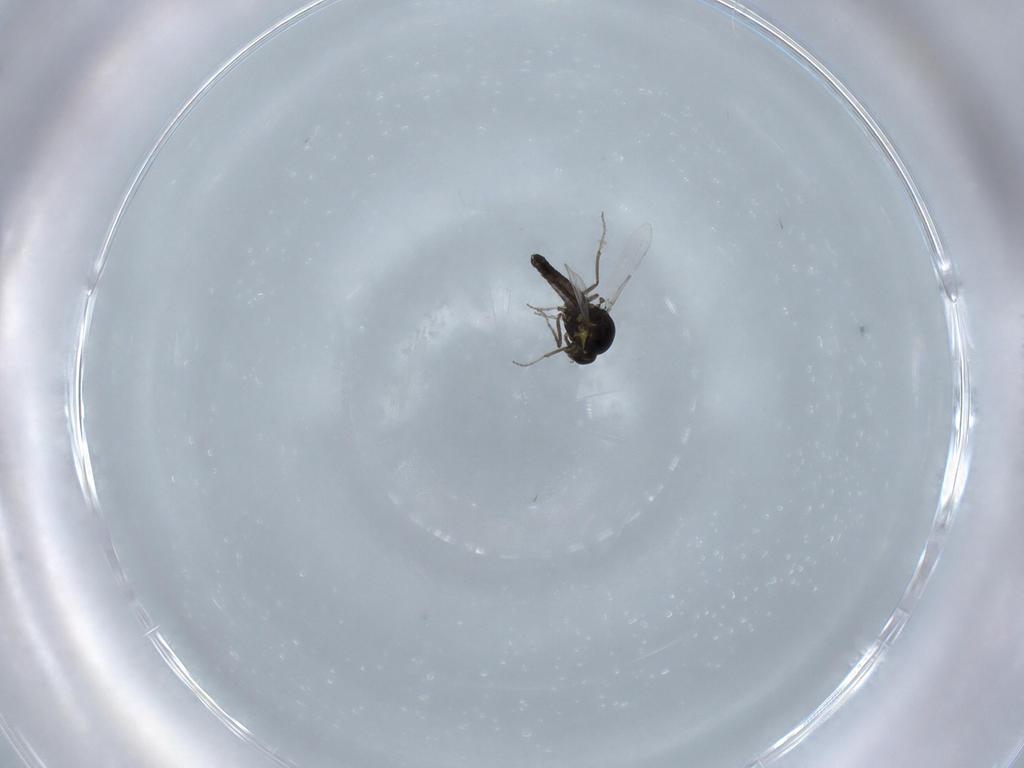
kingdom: Animalia
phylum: Arthropoda
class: Insecta
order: Diptera
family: Ceratopogonidae
